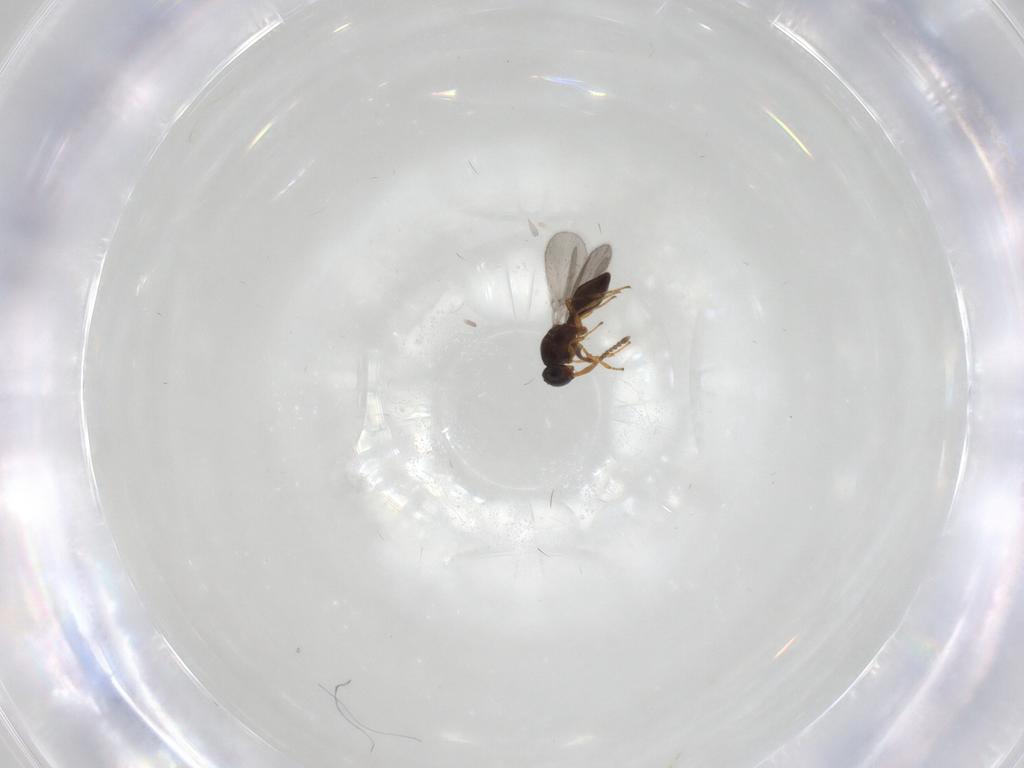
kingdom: Animalia
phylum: Arthropoda
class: Insecta
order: Hymenoptera
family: Platygastridae
